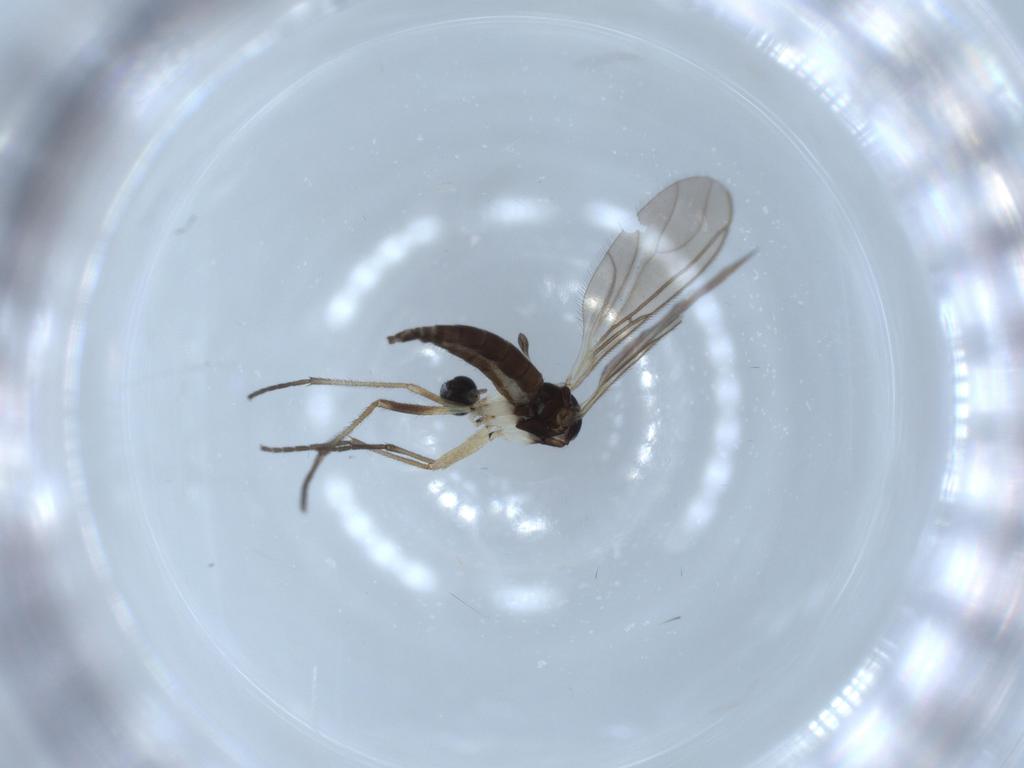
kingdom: Animalia
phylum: Arthropoda
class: Insecta
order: Diptera
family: Sciaridae
